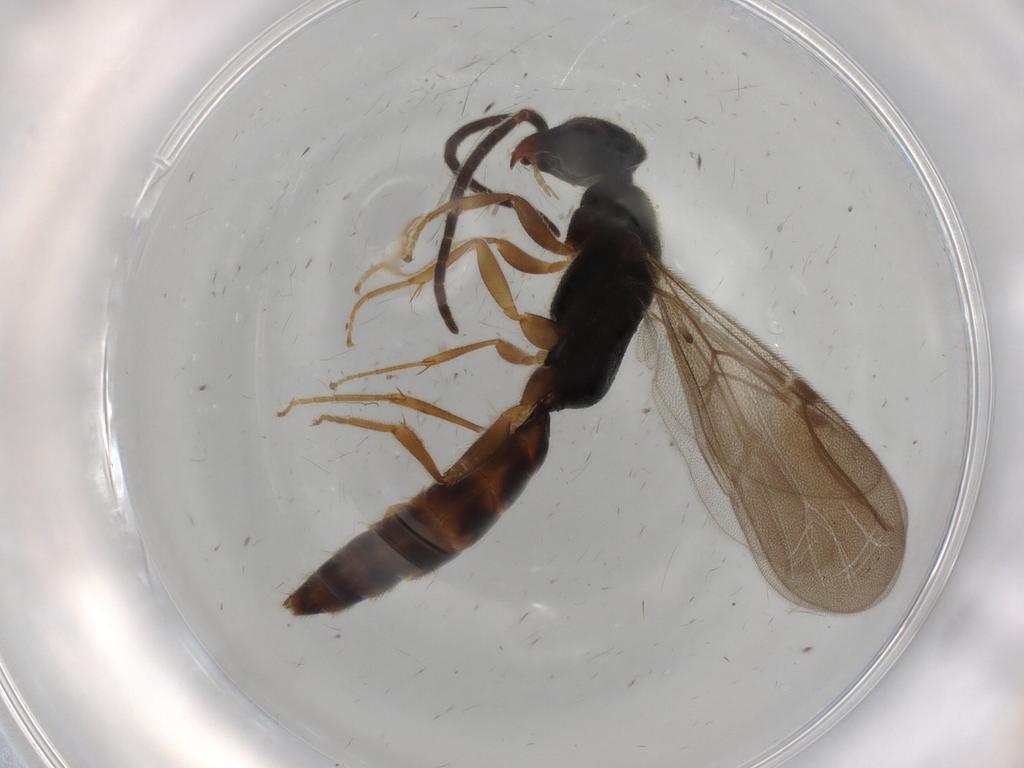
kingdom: Animalia
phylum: Arthropoda
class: Insecta
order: Hymenoptera
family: Bethylidae
